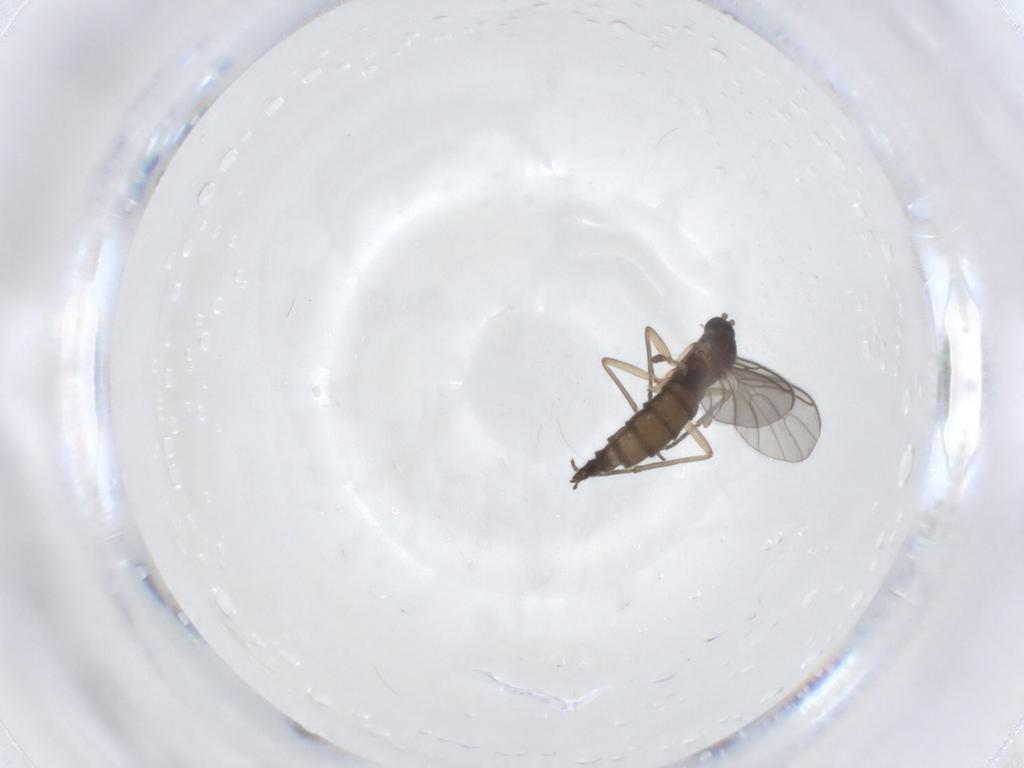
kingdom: Animalia
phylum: Arthropoda
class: Insecta
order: Diptera
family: Sciaridae
